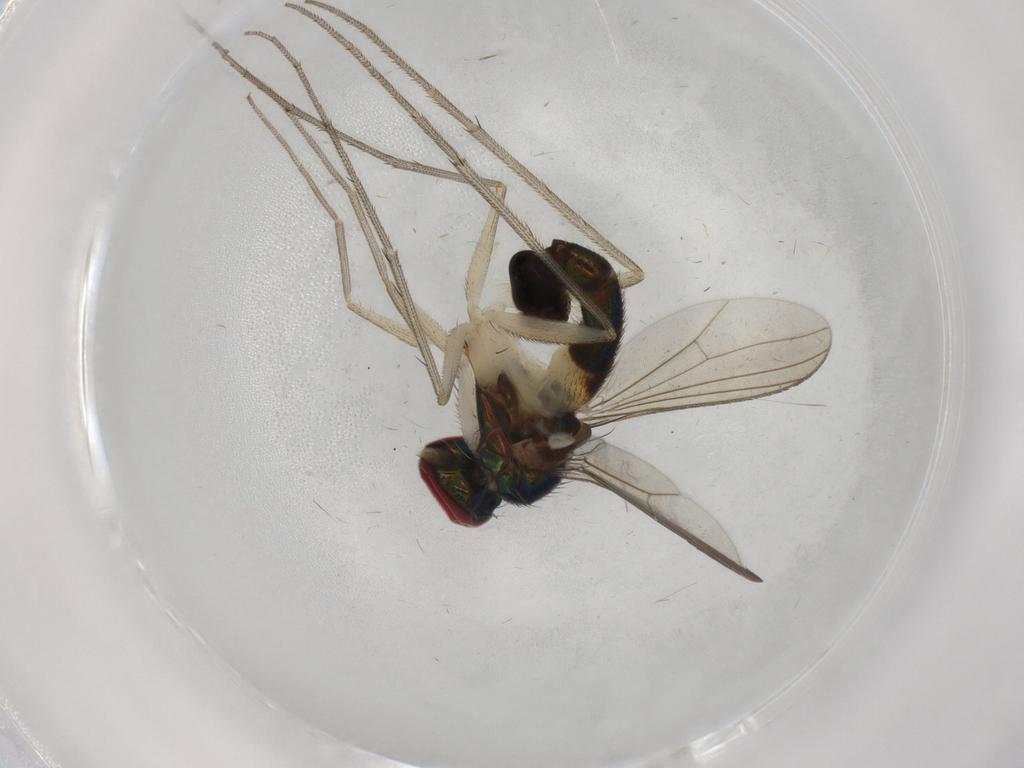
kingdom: Animalia
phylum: Arthropoda
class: Insecta
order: Diptera
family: Dolichopodidae
